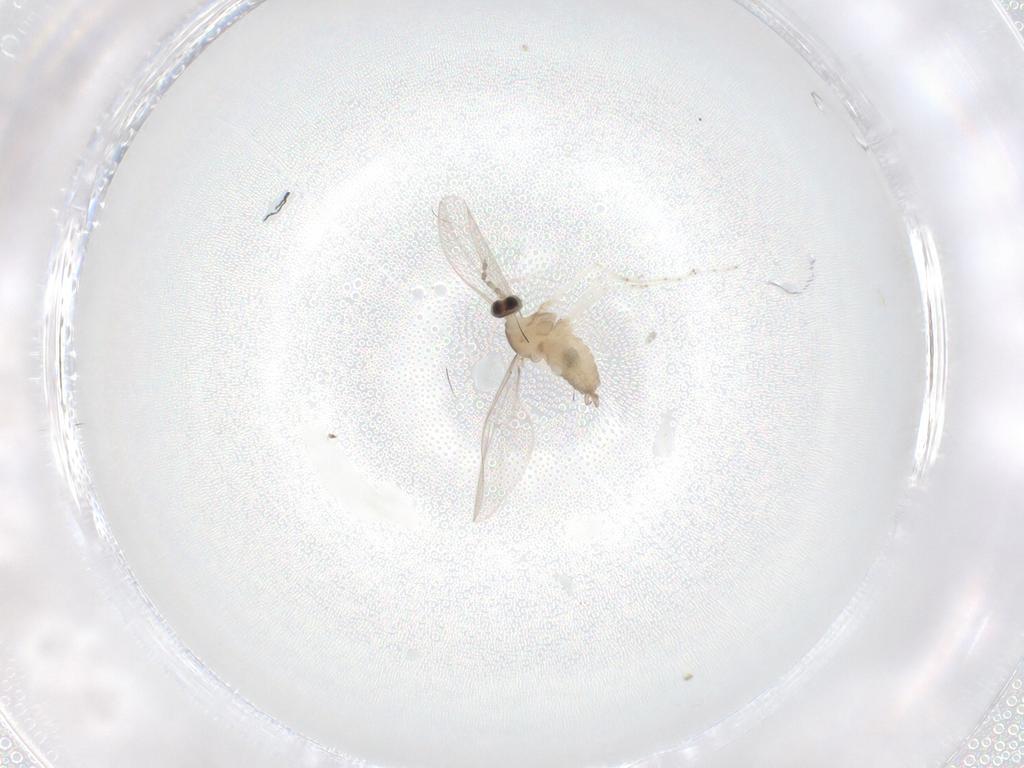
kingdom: Animalia
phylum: Arthropoda
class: Insecta
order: Diptera
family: Cecidomyiidae
